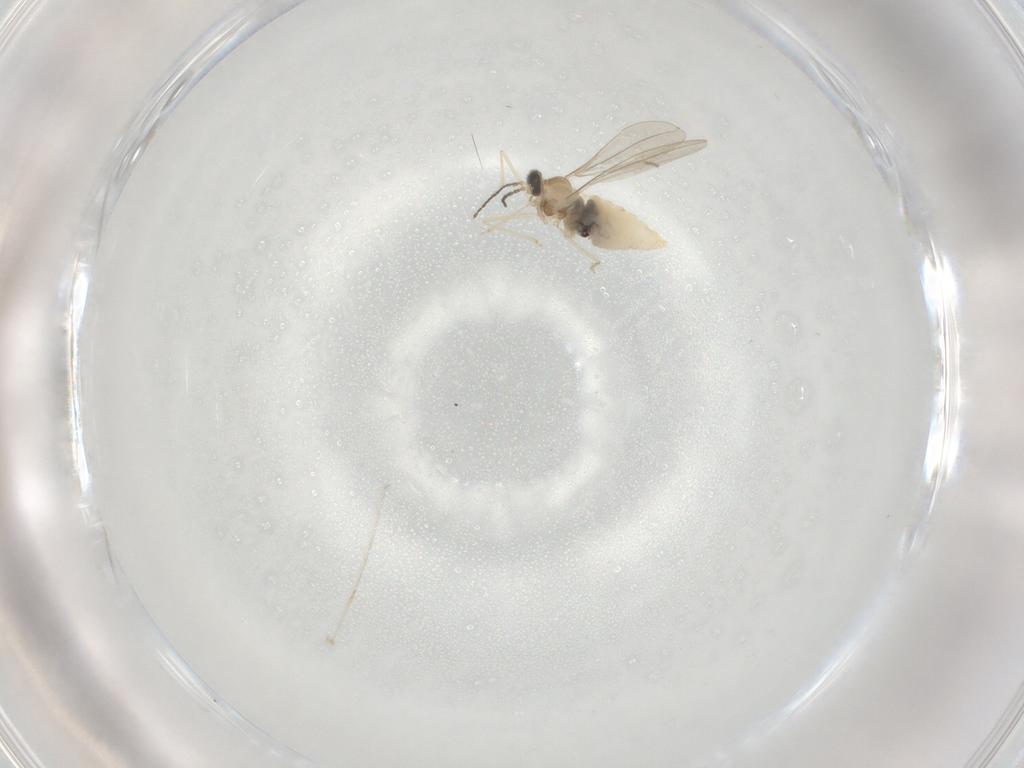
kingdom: Animalia
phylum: Arthropoda
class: Insecta
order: Diptera
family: Cecidomyiidae
